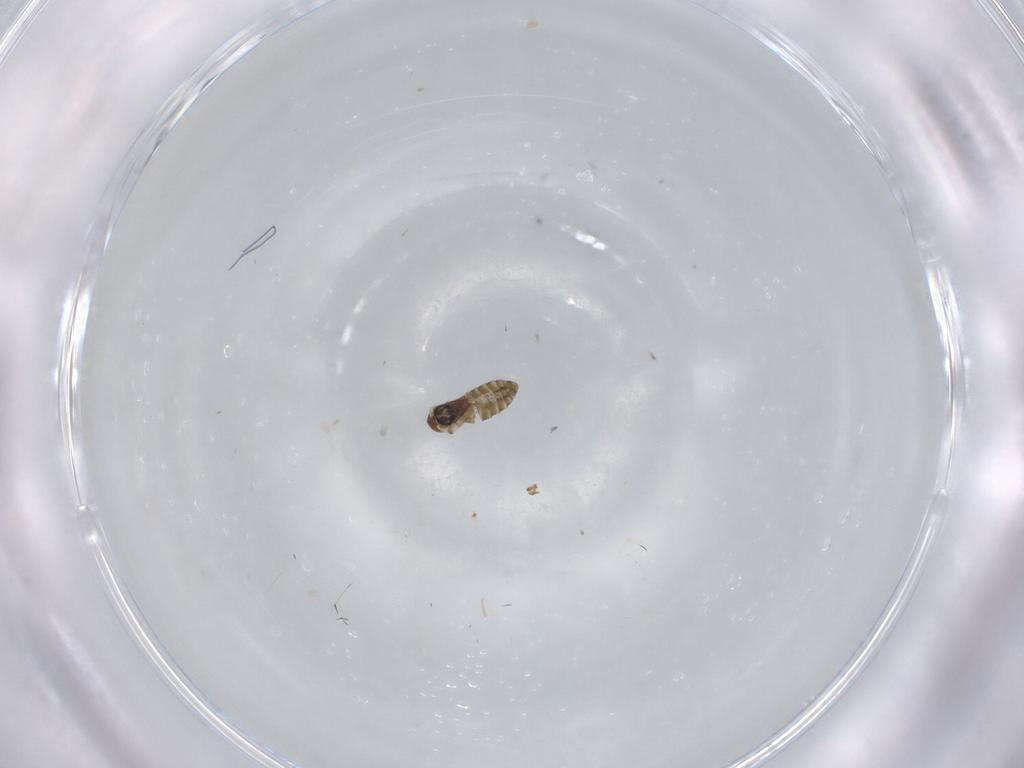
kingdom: Animalia
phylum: Arthropoda
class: Insecta
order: Diptera
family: Ceratopogonidae
